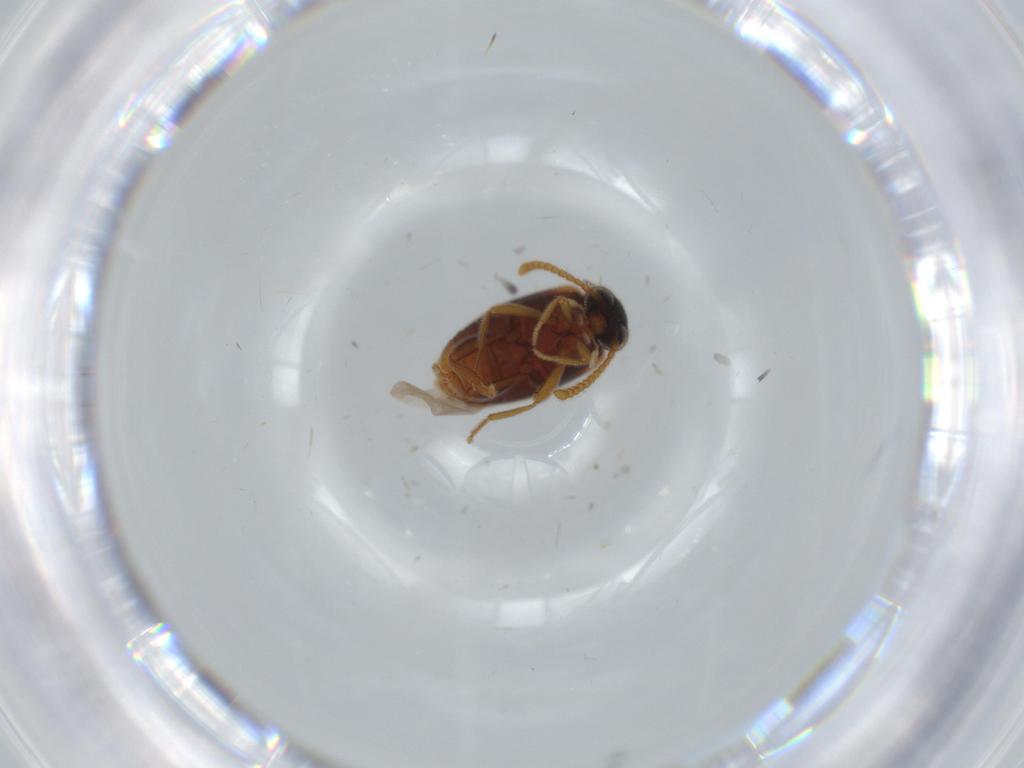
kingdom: Animalia
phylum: Arthropoda
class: Insecta
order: Coleoptera
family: Aderidae
